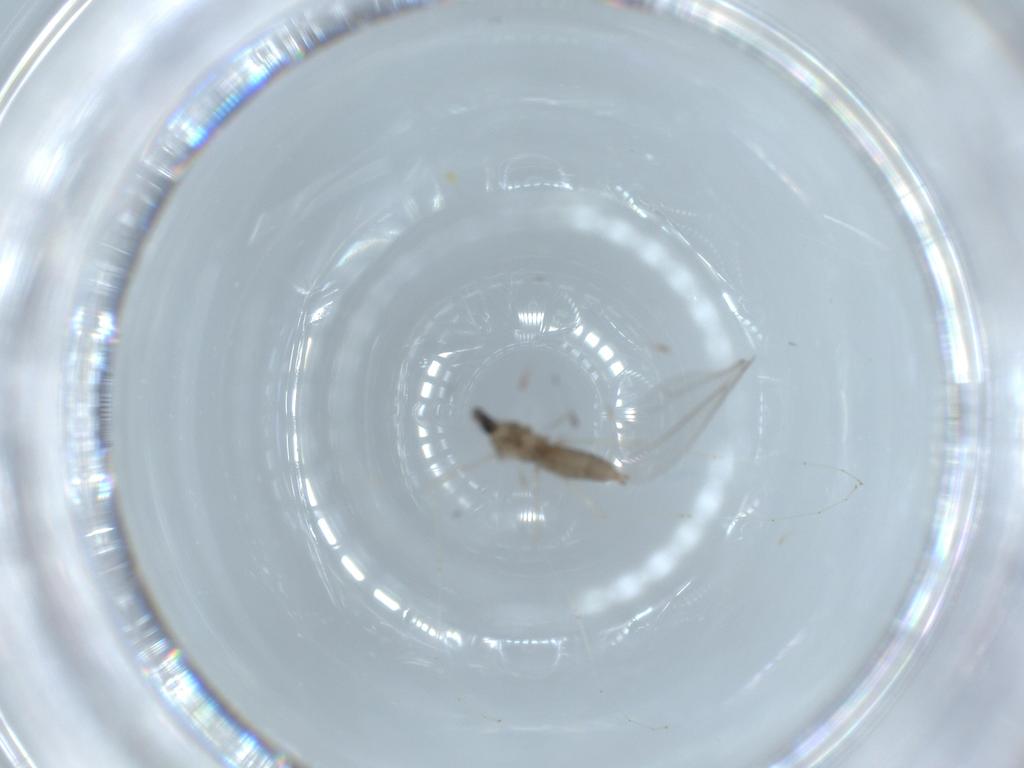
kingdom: Animalia
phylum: Arthropoda
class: Insecta
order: Diptera
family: Cecidomyiidae
